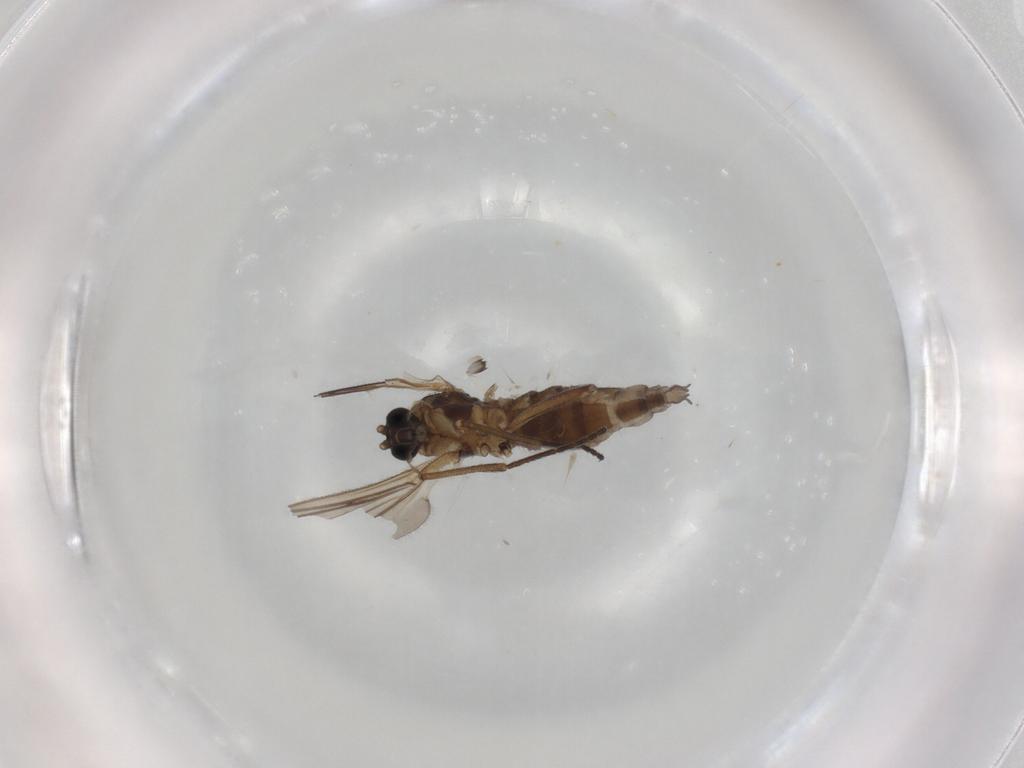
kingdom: Animalia
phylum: Arthropoda
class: Insecta
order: Diptera
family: Sciaridae
